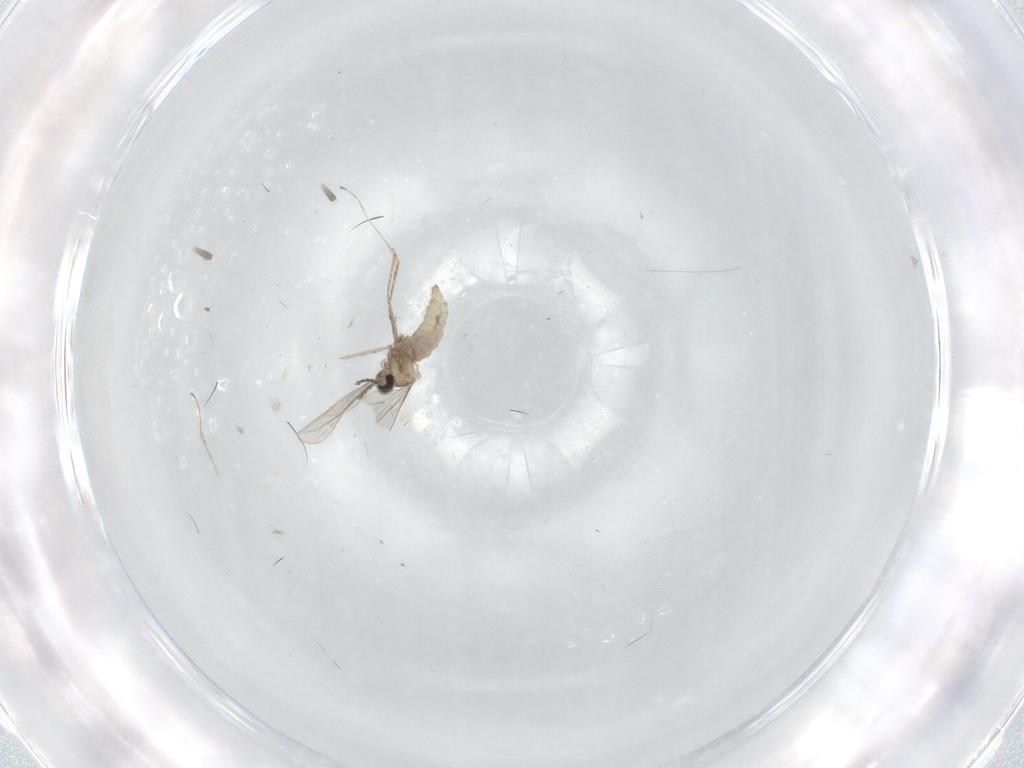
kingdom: Animalia
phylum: Arthropoda
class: Insecta
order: Diptera
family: Cecidomyiidae
